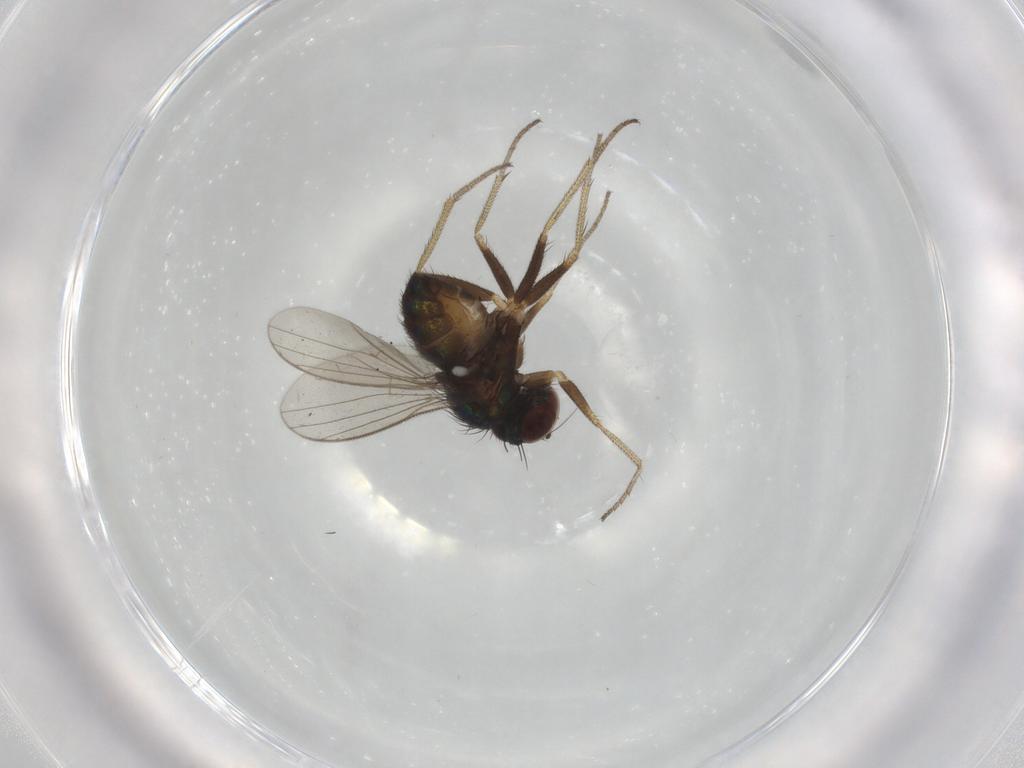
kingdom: Animalia
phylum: Arthropoda
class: Insecta
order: Diptera
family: Dolichopodidae
